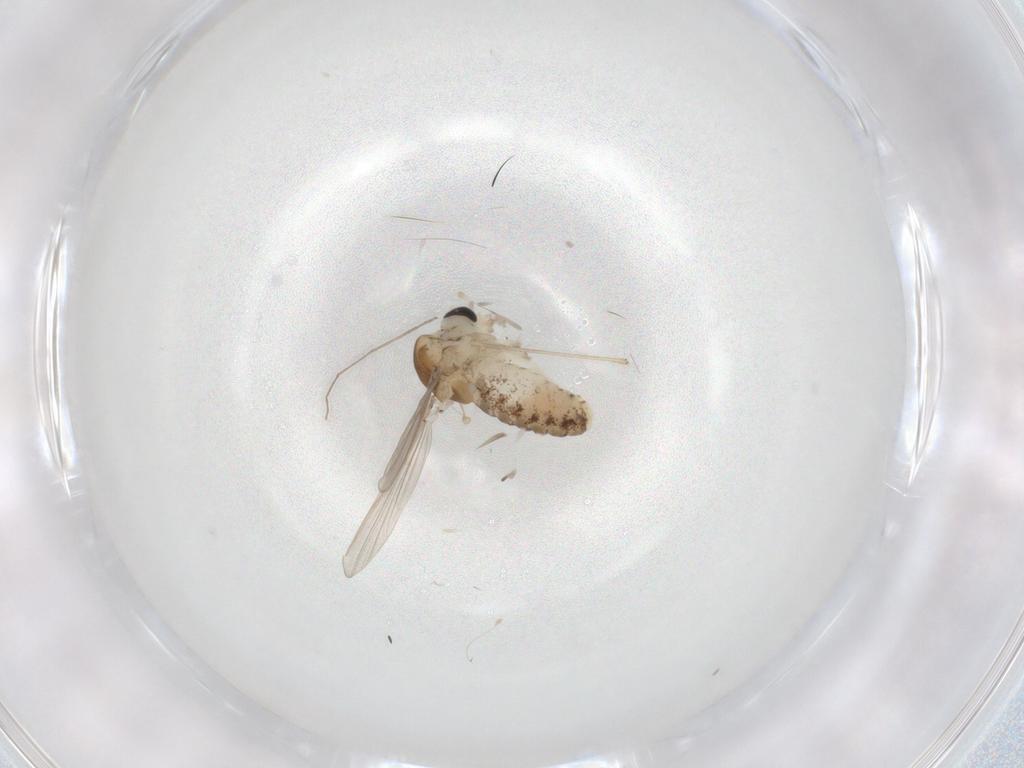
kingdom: Animalia
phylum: Arthropoda
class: Insecta
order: Diptera
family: Chironomidae
